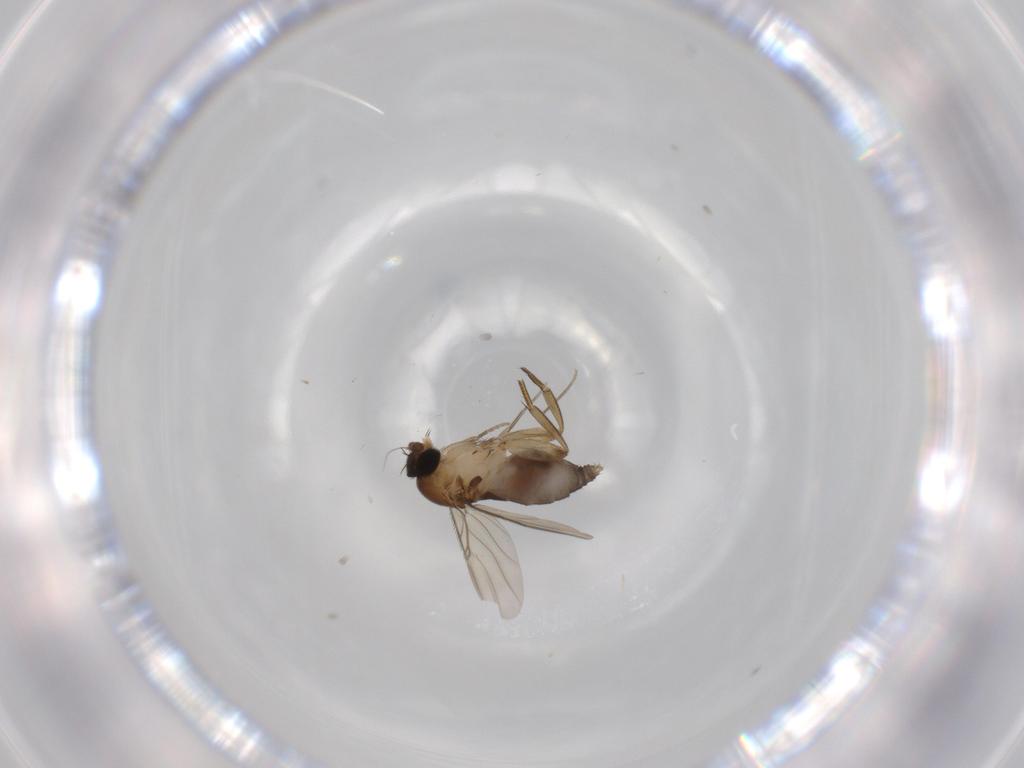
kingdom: Animalia
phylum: Arthropoda
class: Insecta
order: Diptera
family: Phoridae
